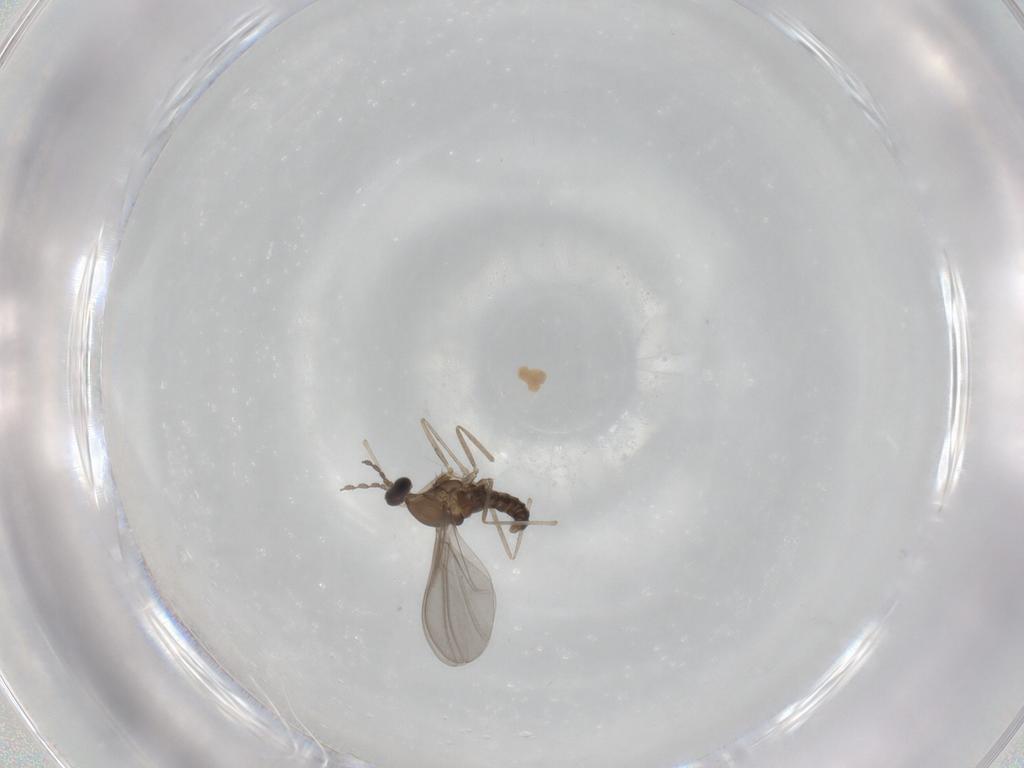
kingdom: Animalia
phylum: Arthropoda
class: Insecta
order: Diptera
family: Cecidomyiidae
